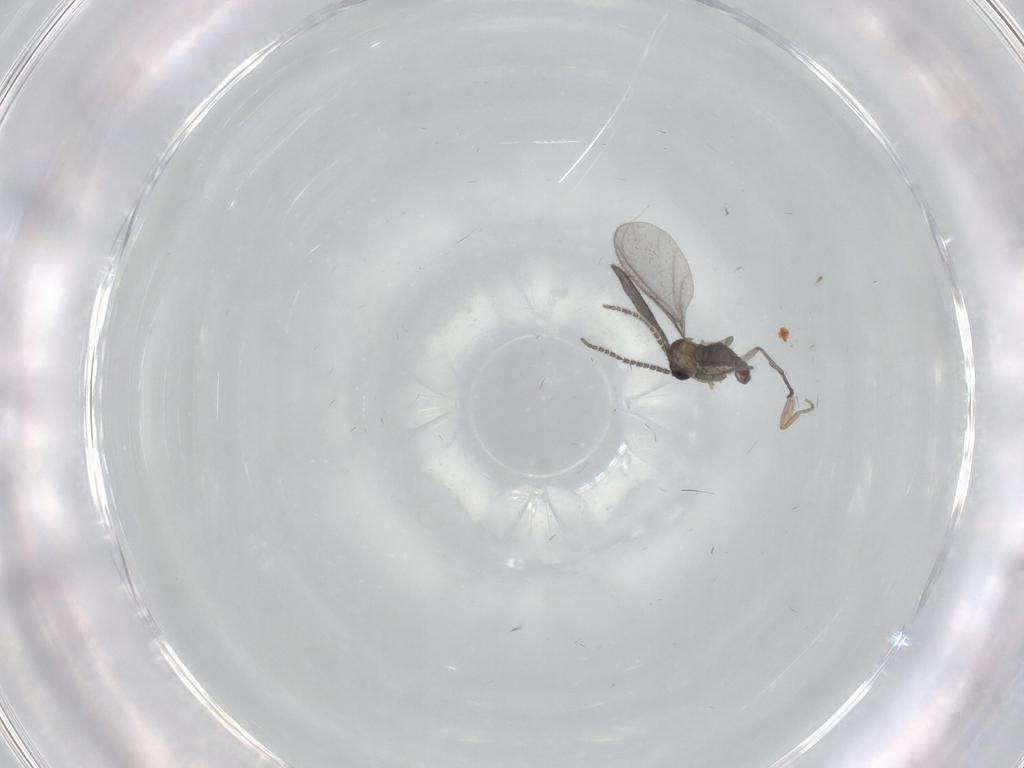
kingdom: Animalia
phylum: Arthropoda
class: Insecta
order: Diptera
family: Sciaridae
